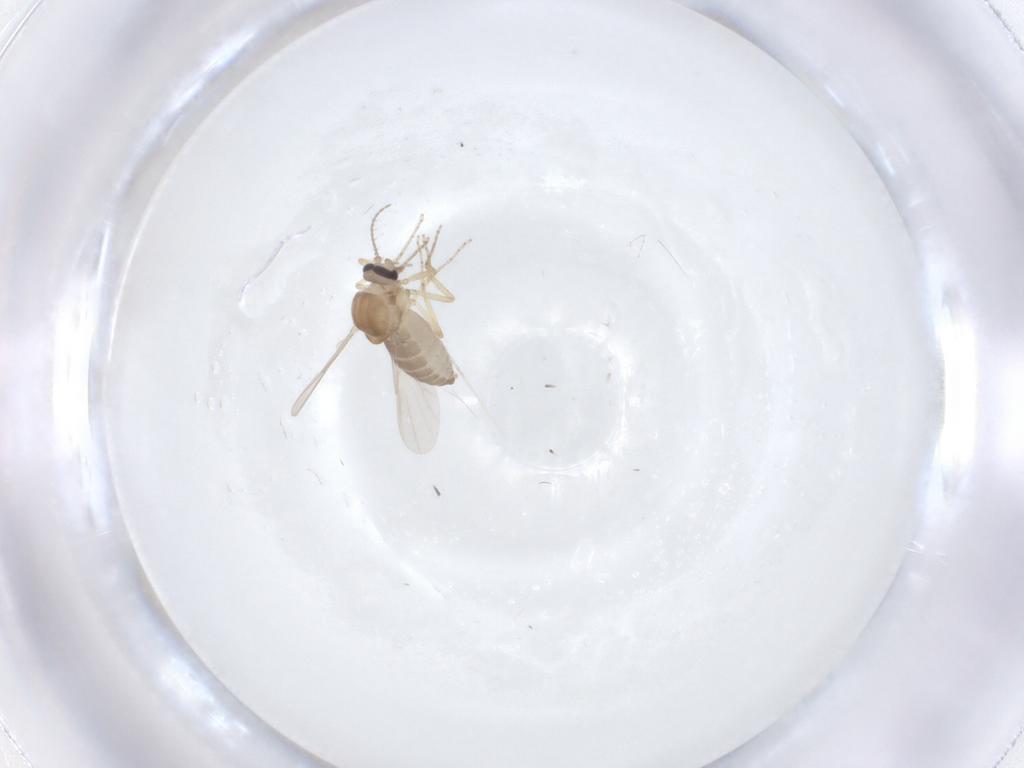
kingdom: Animalia
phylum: Arthropoda
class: Insecta
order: Diptera
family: Ceratopogonidae
